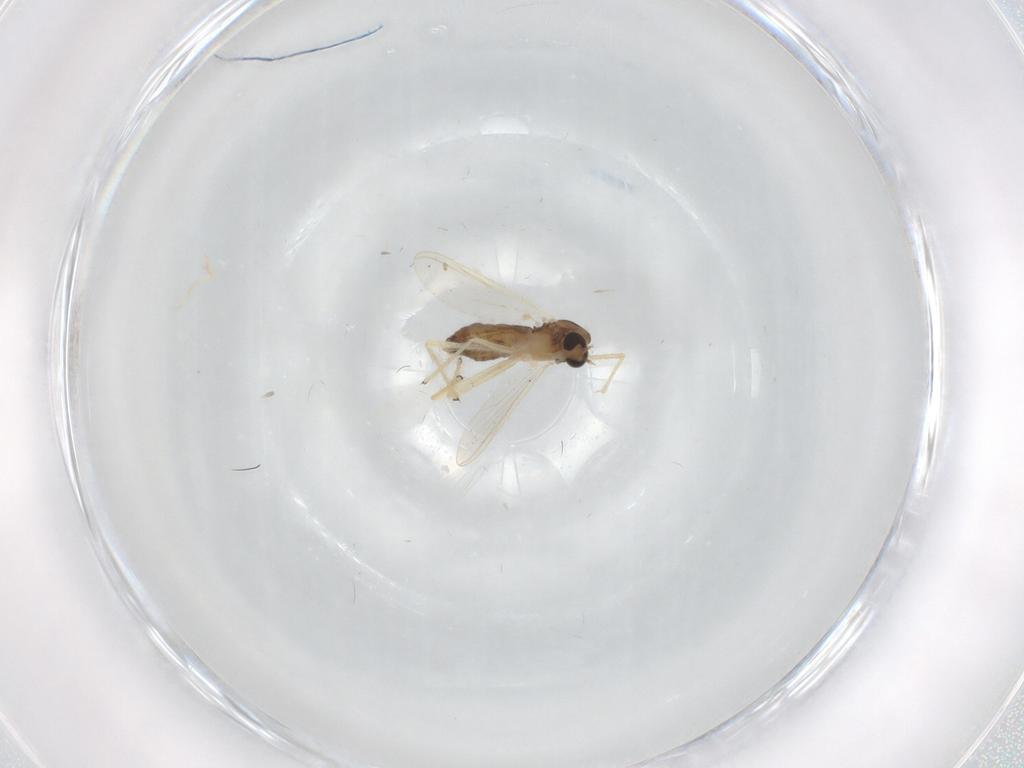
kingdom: Animalia
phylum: Arthropoda
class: Insecta
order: Diptera
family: Chironomidae
